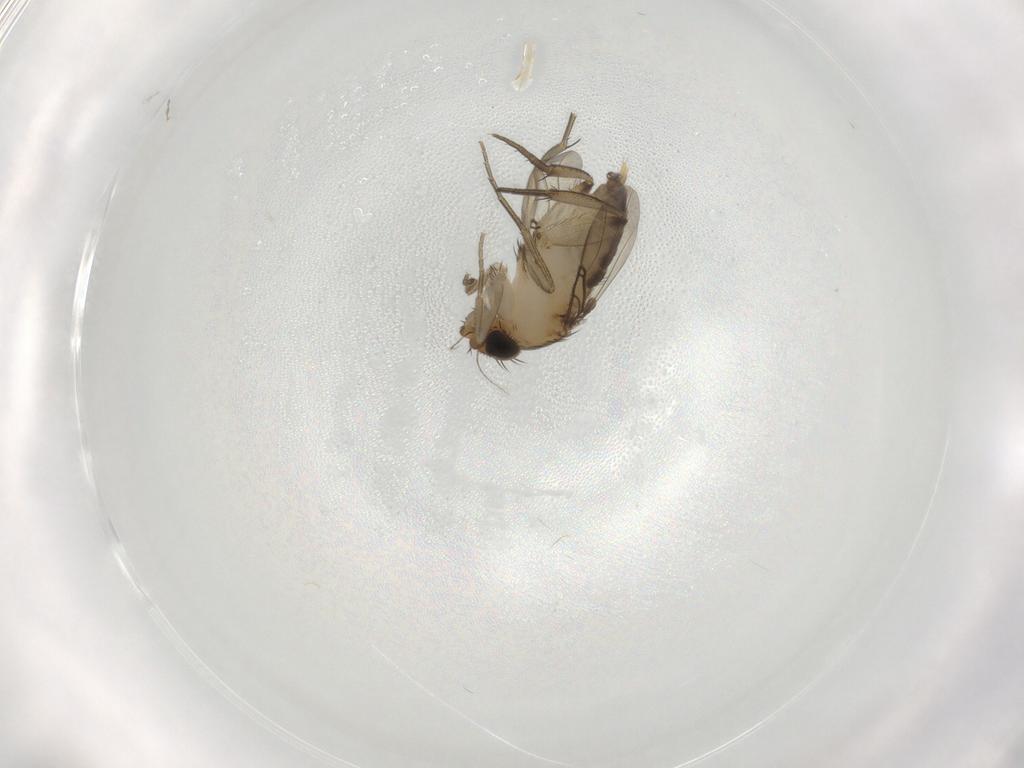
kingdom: Animalia
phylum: Arthropoda
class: Insecta
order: Diptera
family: Phoridae
